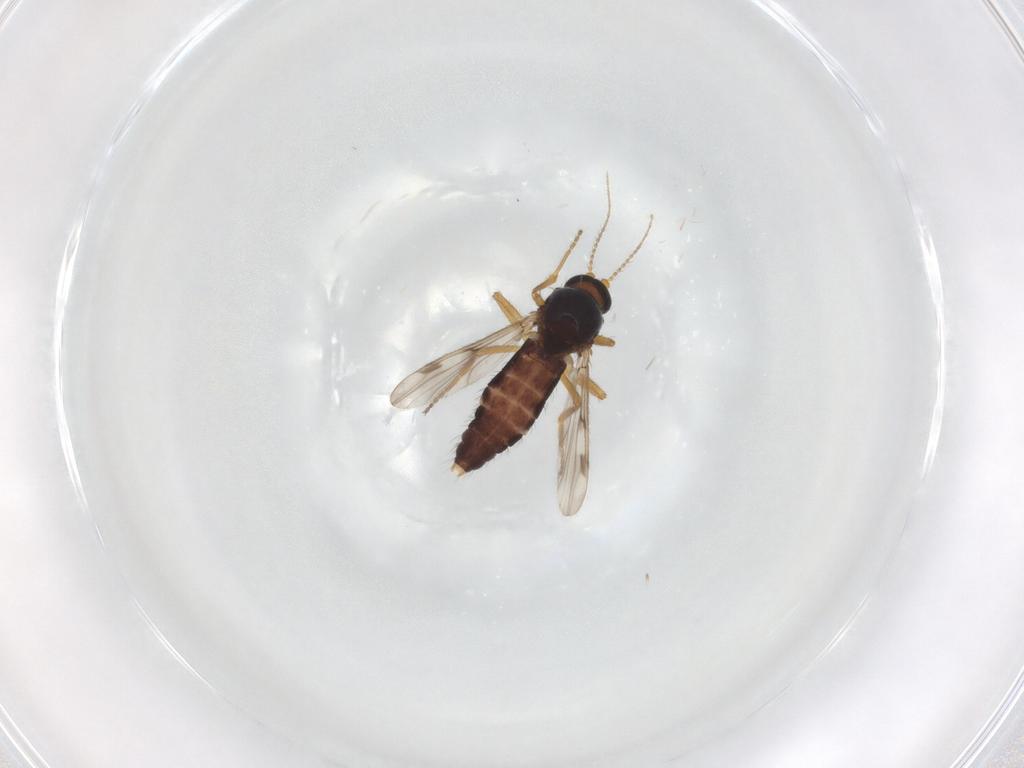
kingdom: Animalia
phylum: Arthropoda
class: Insecta
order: Diptera
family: Ceratopogonidae
